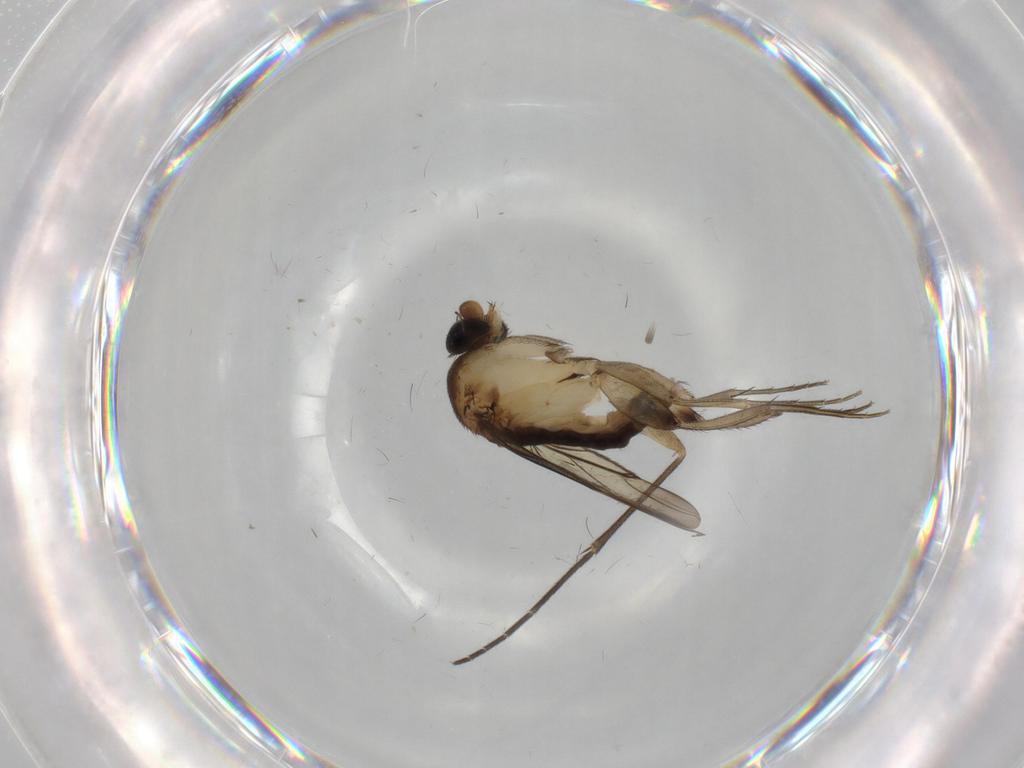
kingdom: Animalia
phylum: Arthropoda
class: Insecta
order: Diptera
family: Phoridae
